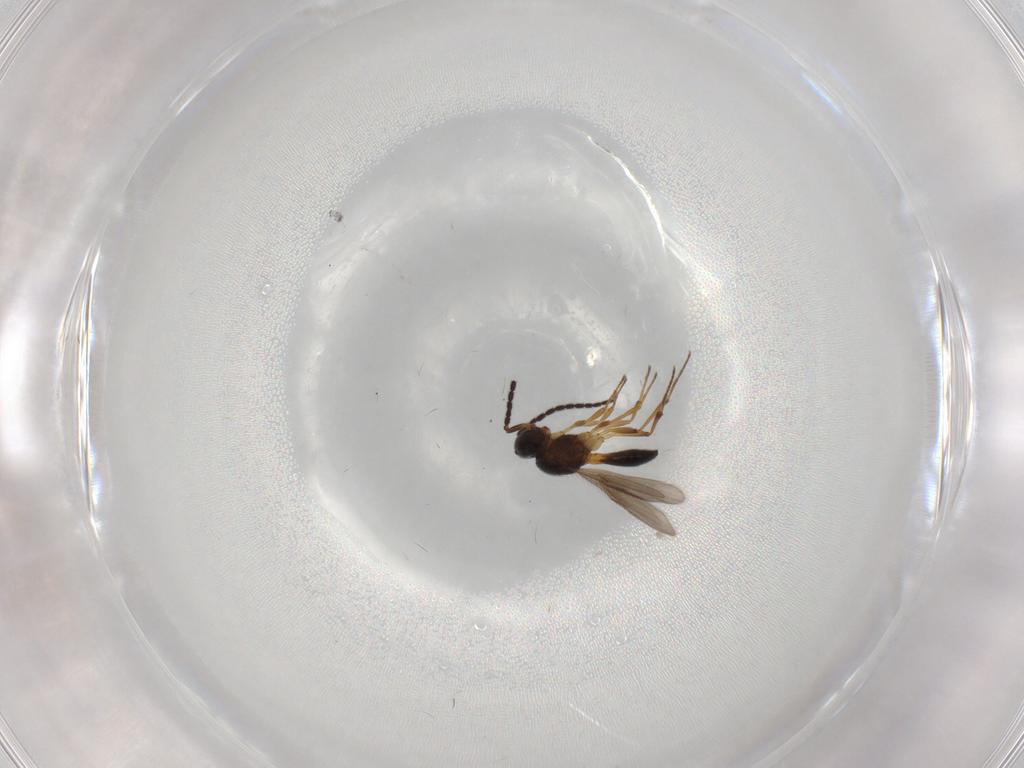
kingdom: Animalia
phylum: Arthropoda
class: Insecta
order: Hymenoptera
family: Scelionidae
